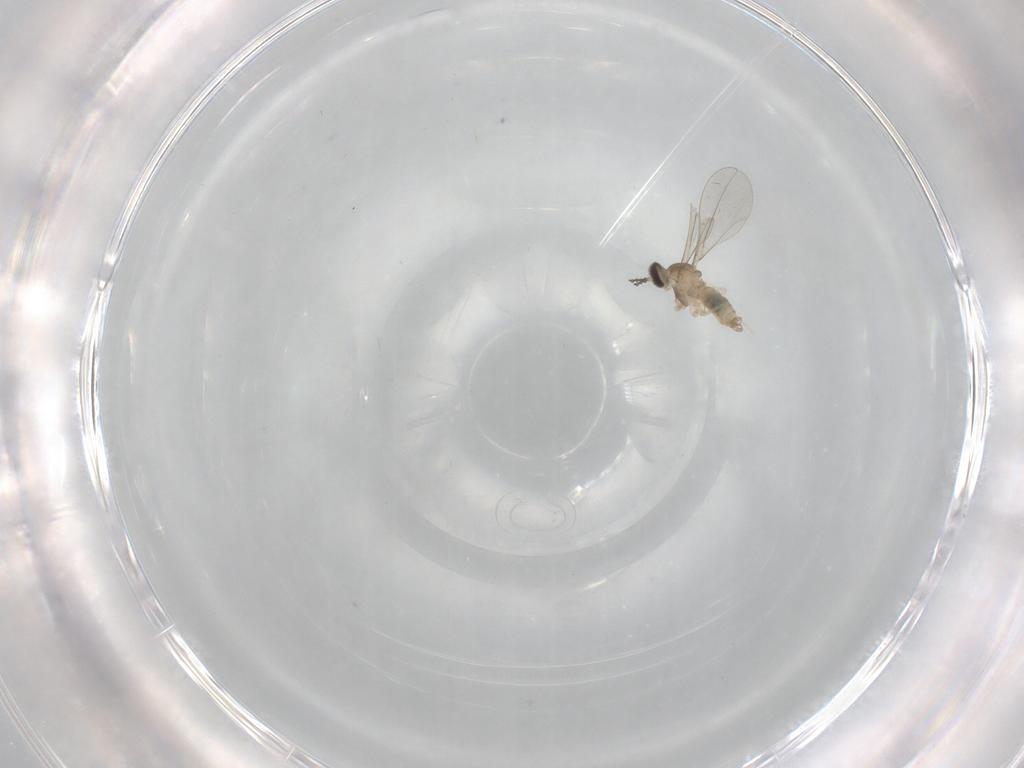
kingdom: Animalia
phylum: Arthropoda
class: Insecta
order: Diptera
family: Cecidomyiidae
